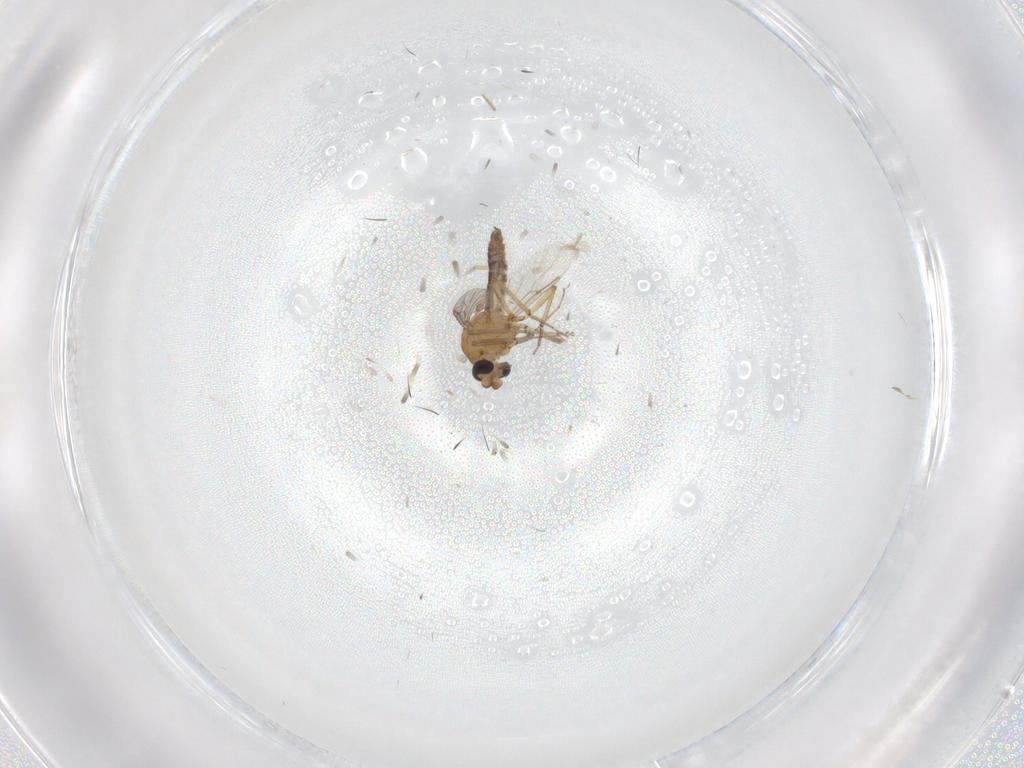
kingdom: Animalia
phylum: Arthropoda
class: Insecta
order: Diptera
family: Ceratopogonidae
